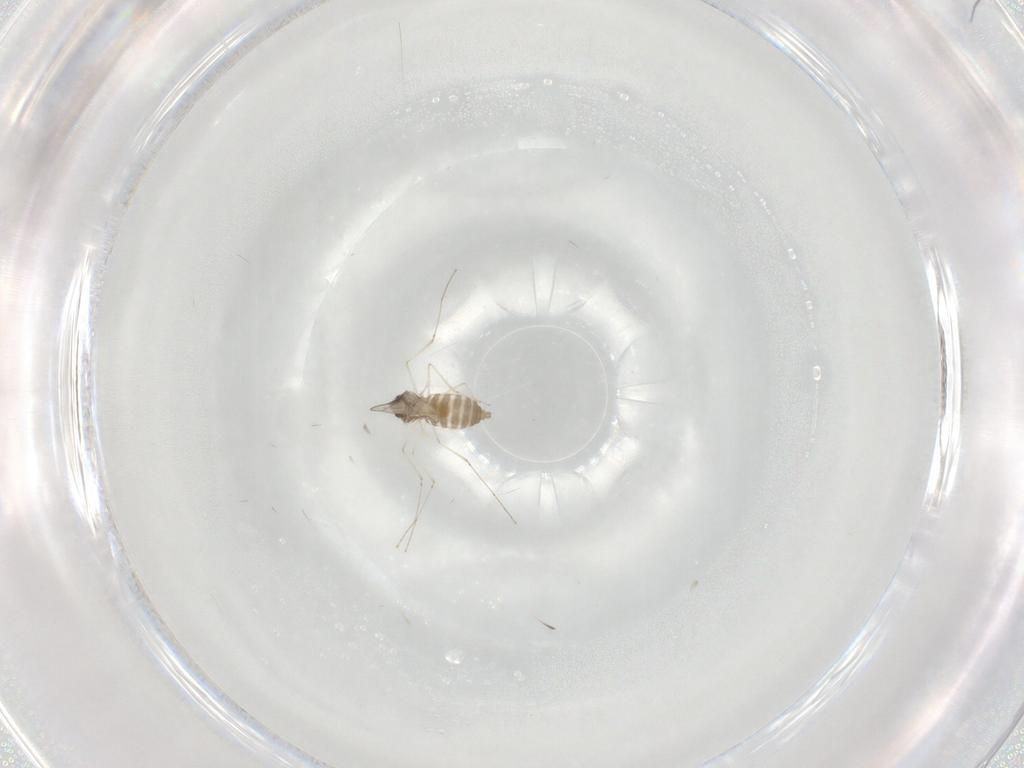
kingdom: Animalia
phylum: Arthropoda
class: Insecta
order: Diptera
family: Cecidomyiidae
